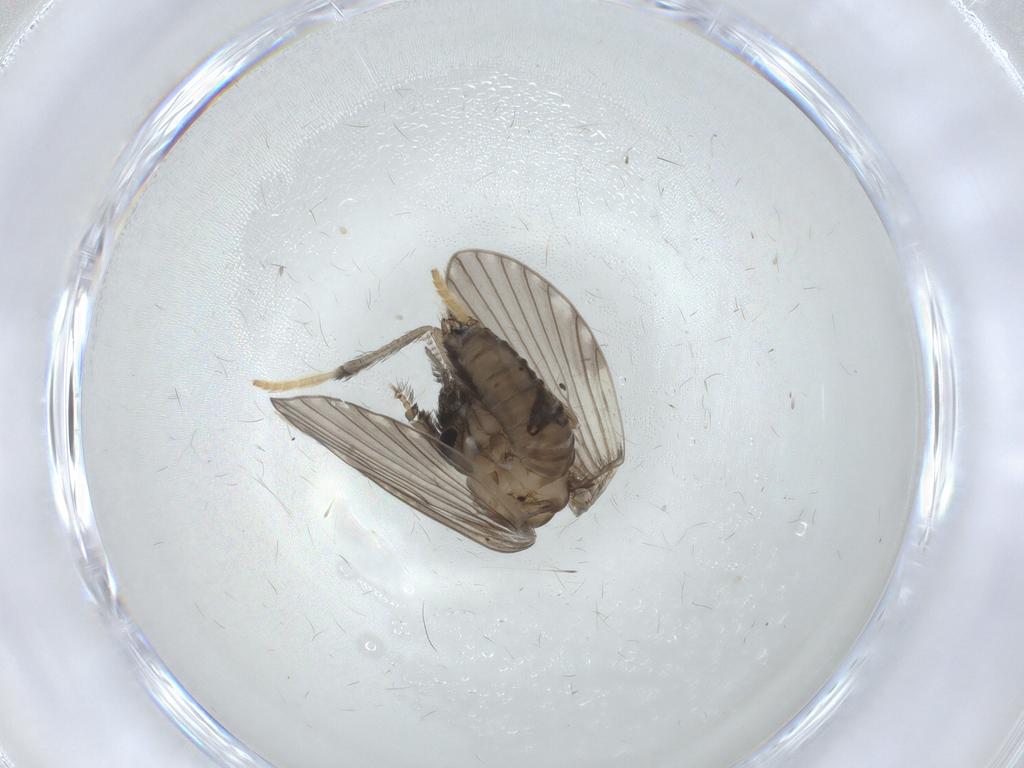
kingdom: Animalia
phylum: Arthropoda
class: Insecta
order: Diptera
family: Psychodidae
